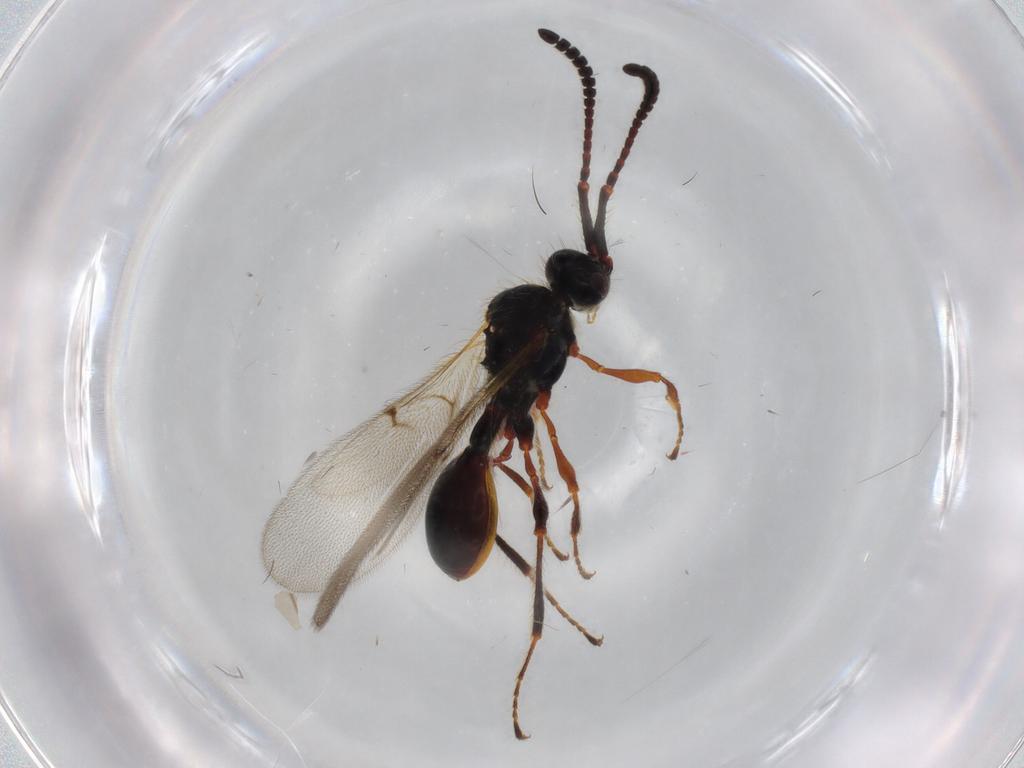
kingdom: Animalia
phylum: Arthropoda
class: Insecta
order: Hymenoptera
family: Diapriidae
